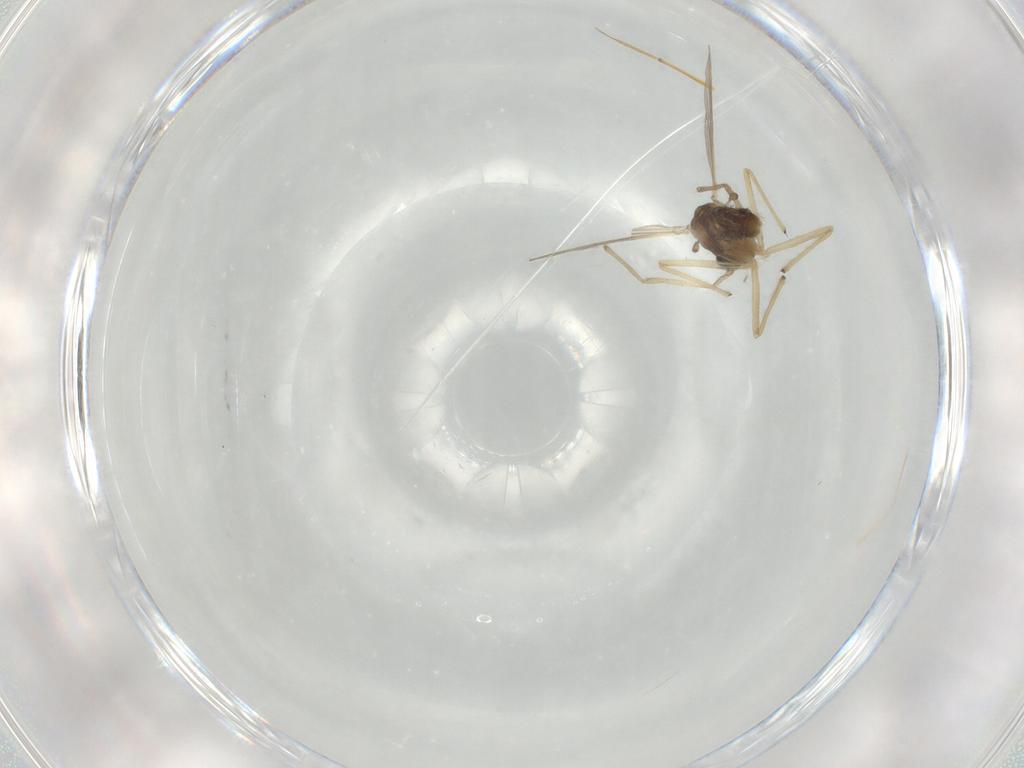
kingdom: Animalia
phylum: Arthropoda
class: Insecta
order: Diptera
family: Chironomidae
